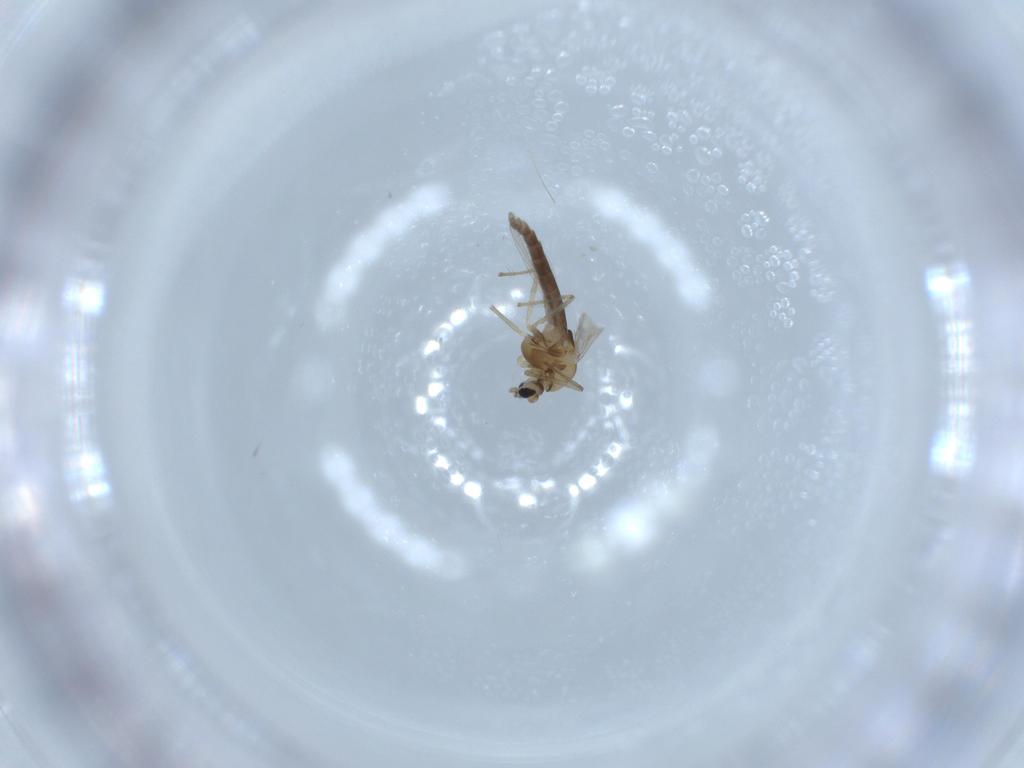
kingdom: Animalia
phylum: Arthropoda
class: Insecta
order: Diptera
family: Chironomidae
